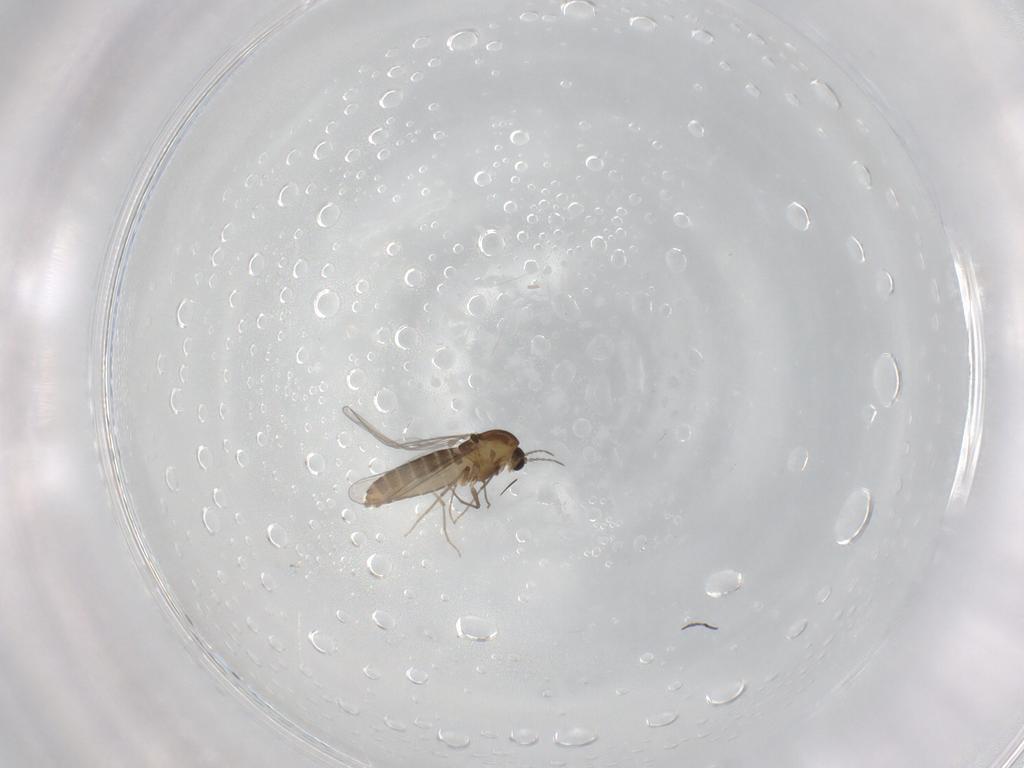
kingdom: Animalia
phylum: Arthropoda
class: Insecta
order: Diptera
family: Chironomidae
